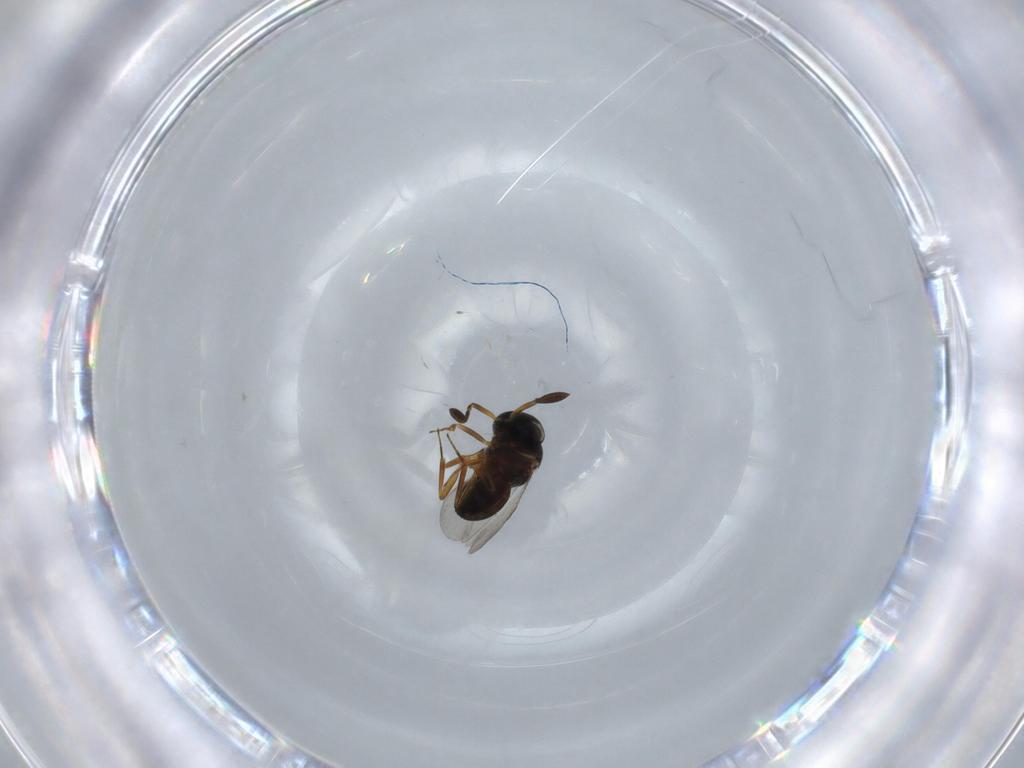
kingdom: Animalia
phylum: Arthropoda
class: Insecta
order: Coleoptera
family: Curculionidae
